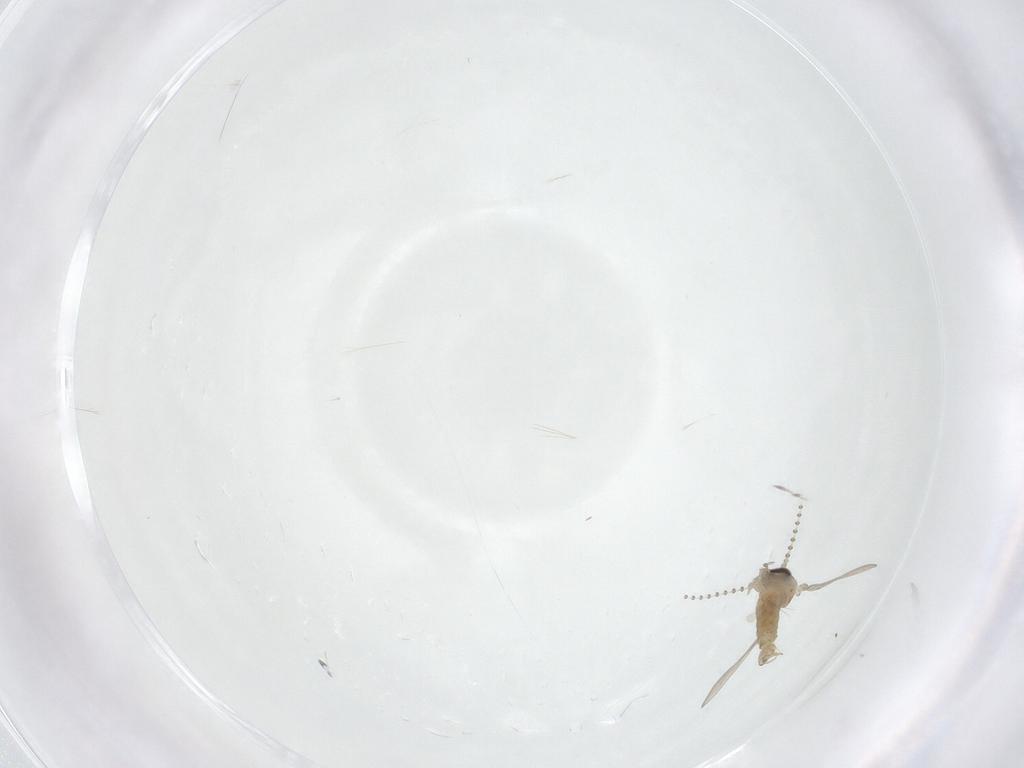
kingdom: Animalia
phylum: Arthropoda
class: Insecta
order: Diptera
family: Psychodidae
